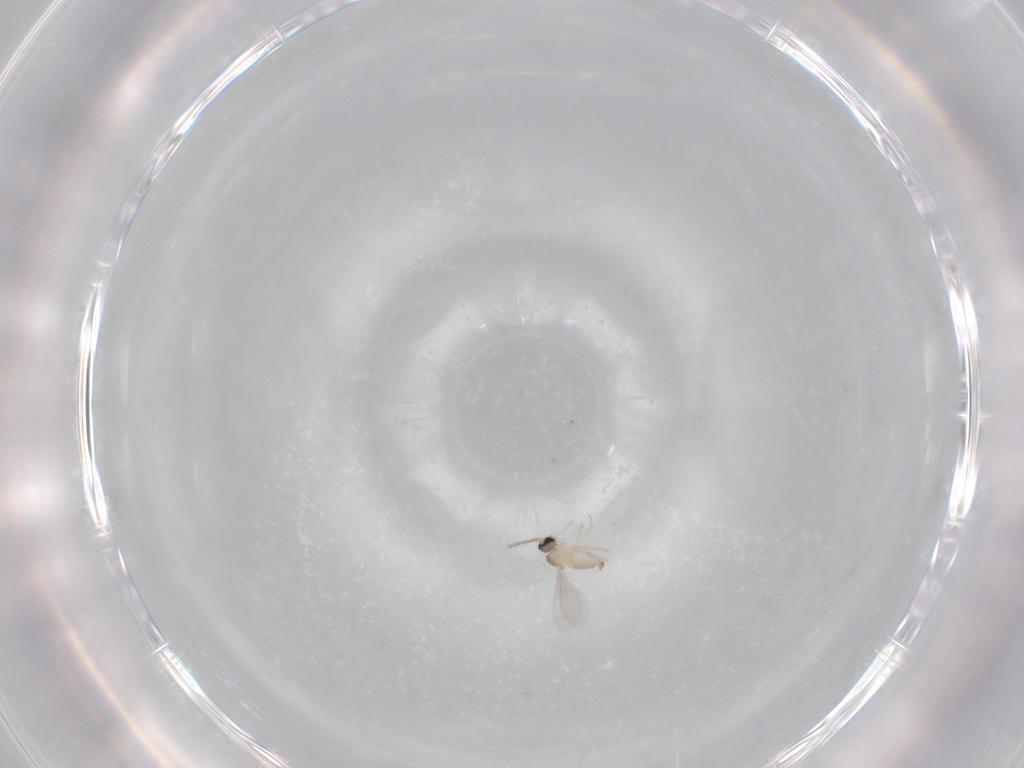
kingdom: Animalia
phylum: Arthropoda
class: Insecta
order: Diptera
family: Cecidomyiidae
